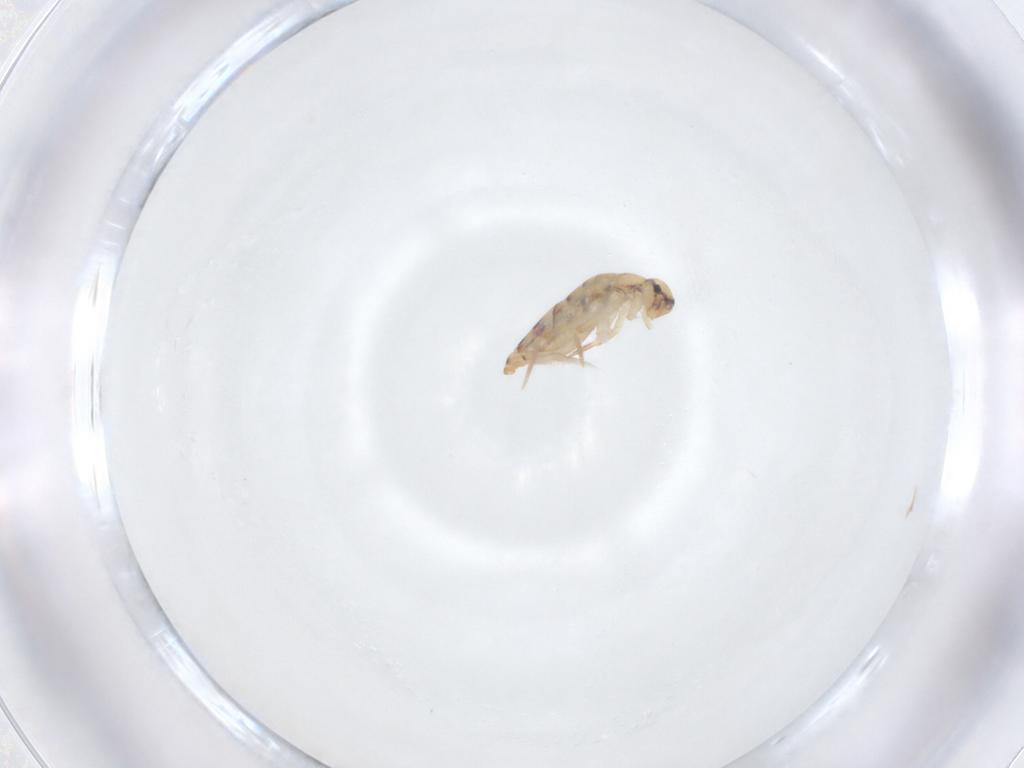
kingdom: Animalia
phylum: Arthropoda
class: Collembola
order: Entomobryomorpha
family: Entomobryidae
